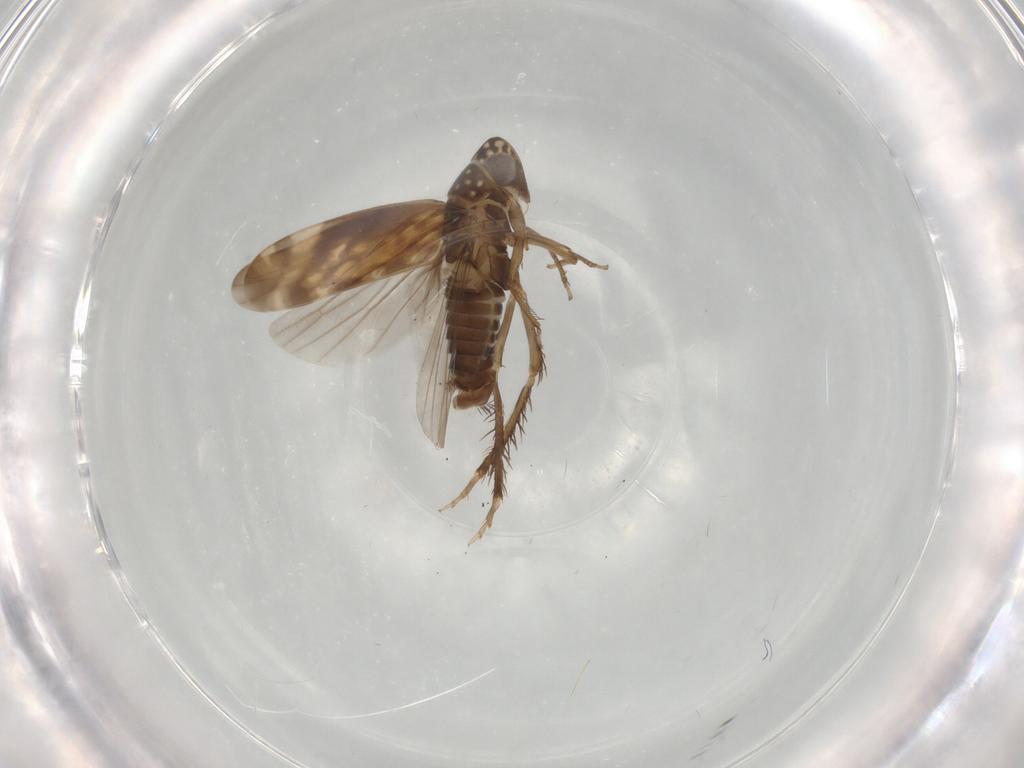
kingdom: Animalia
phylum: Arthropoda
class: Insecta
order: Hemiptera
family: Cicadellidae
